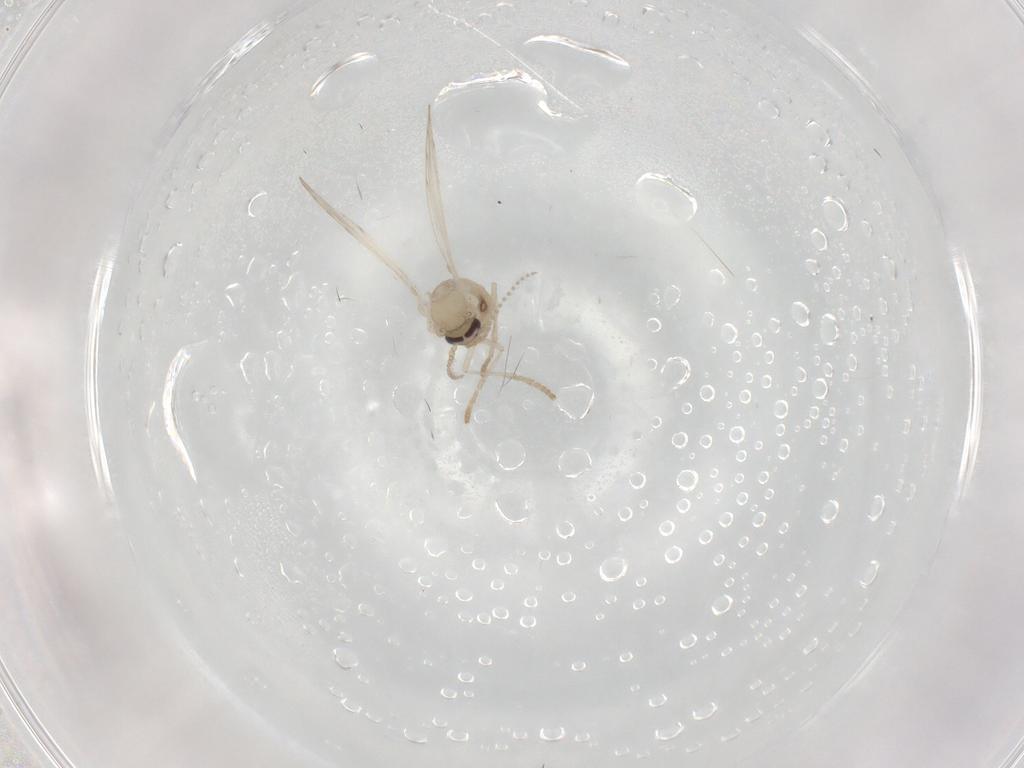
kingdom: Animalia
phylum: Arthropoda
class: Insecta
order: Diptera
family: Psychodidae
